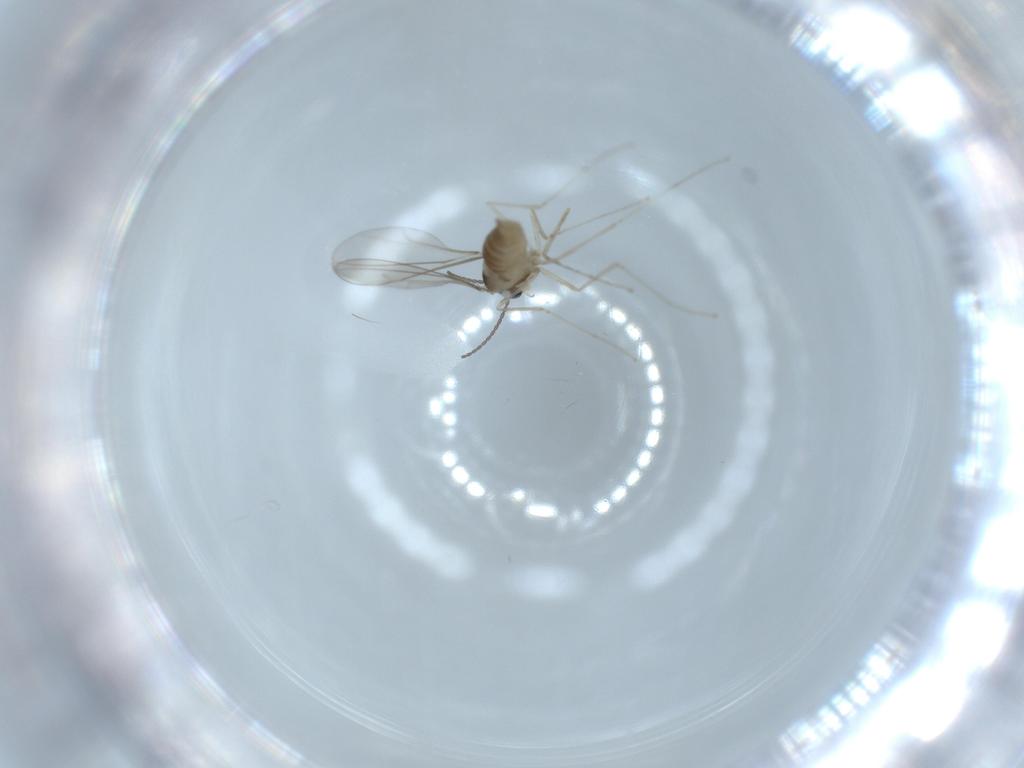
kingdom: Animalia
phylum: Arthropoda
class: Insecta
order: Diptera
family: Cecidomyiidae
